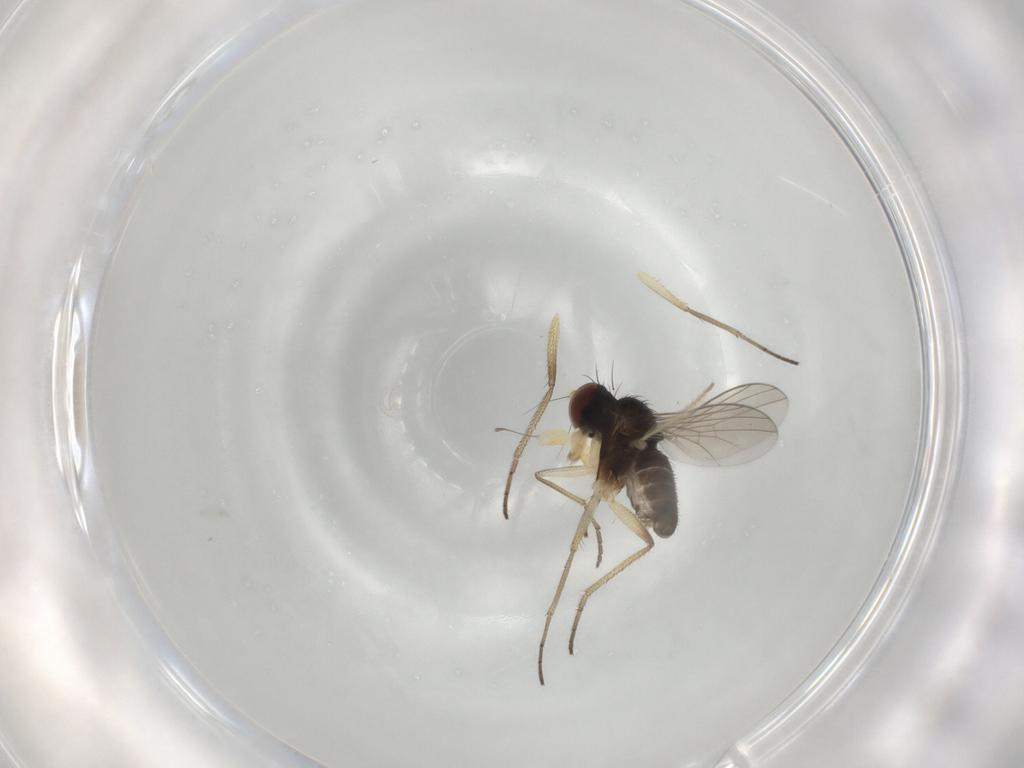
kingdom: Animalia
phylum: Arthropoda
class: Insecta
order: Diptera
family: Dolichopodidae
